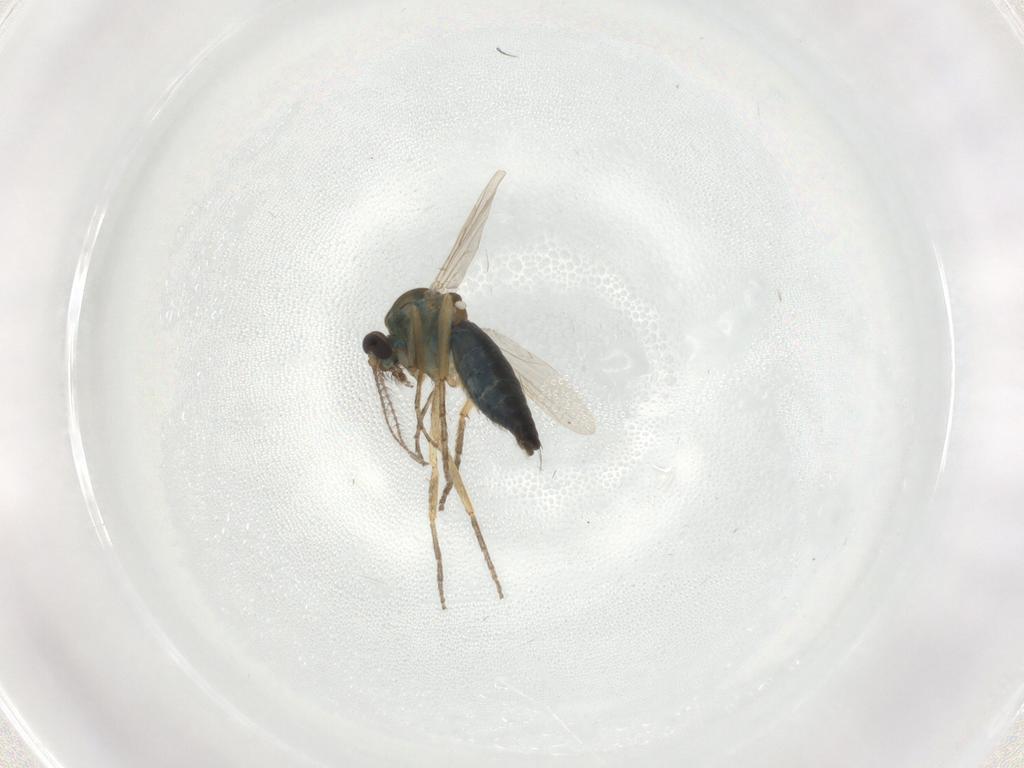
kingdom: Animalia
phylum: Arthropoda
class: Insecta
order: Diptera
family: Ceratopogonidae
